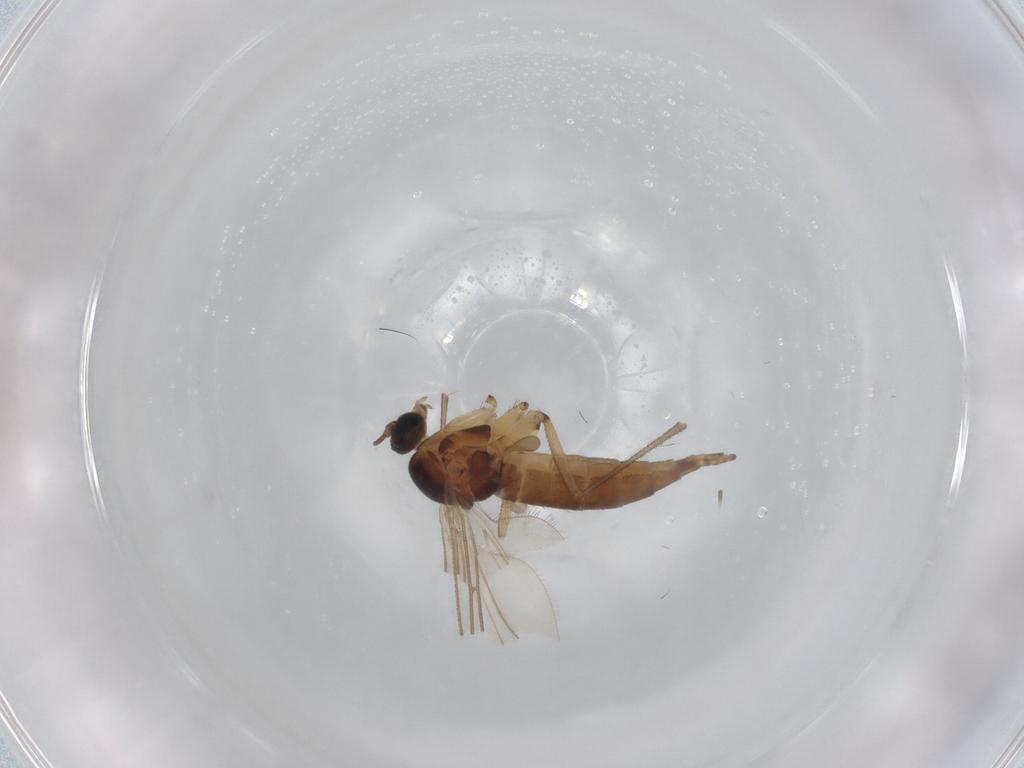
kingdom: Animalia
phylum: Arthropoda
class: Insecta
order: Diptera
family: Sciaridae
